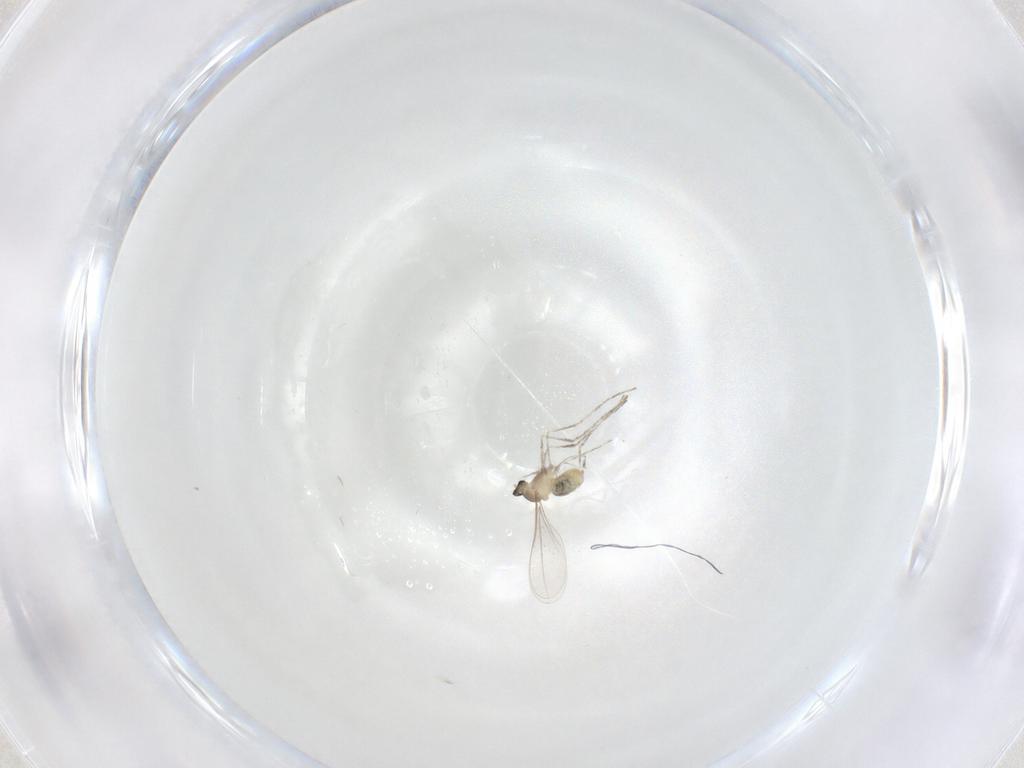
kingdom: Animalia
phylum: Arthropoda
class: Insecta
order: Diptera
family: Cecidomyiidae
